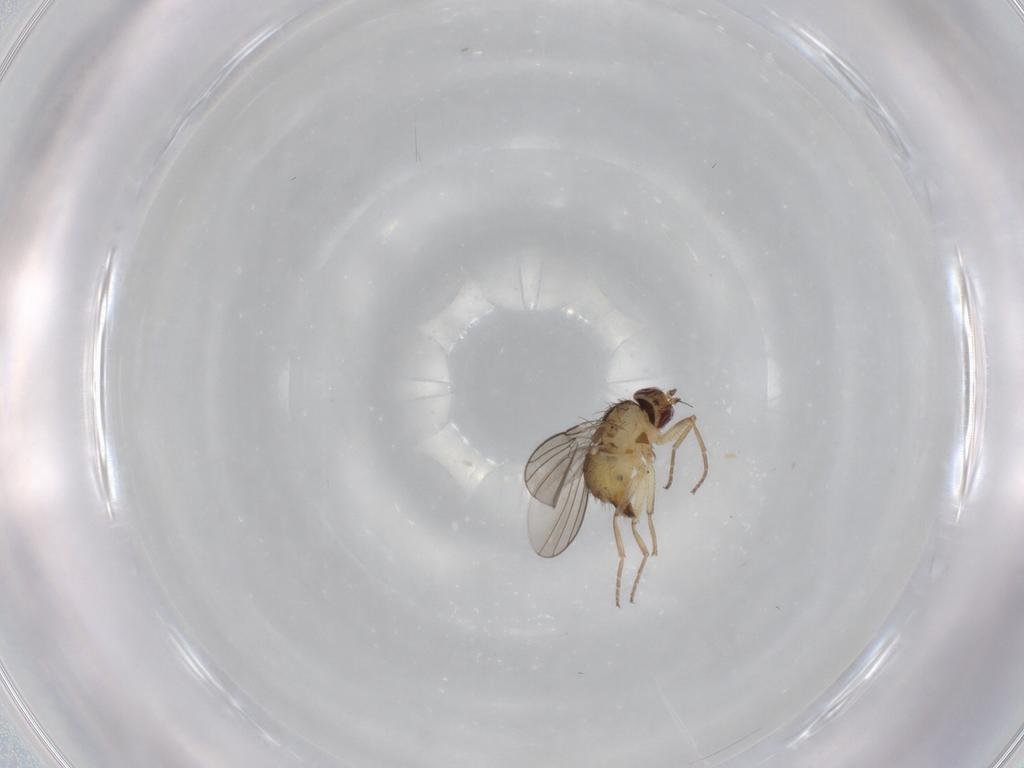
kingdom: Animalia
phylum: Arthropoda
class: Insecta
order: Diptera
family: Agromyzidae
